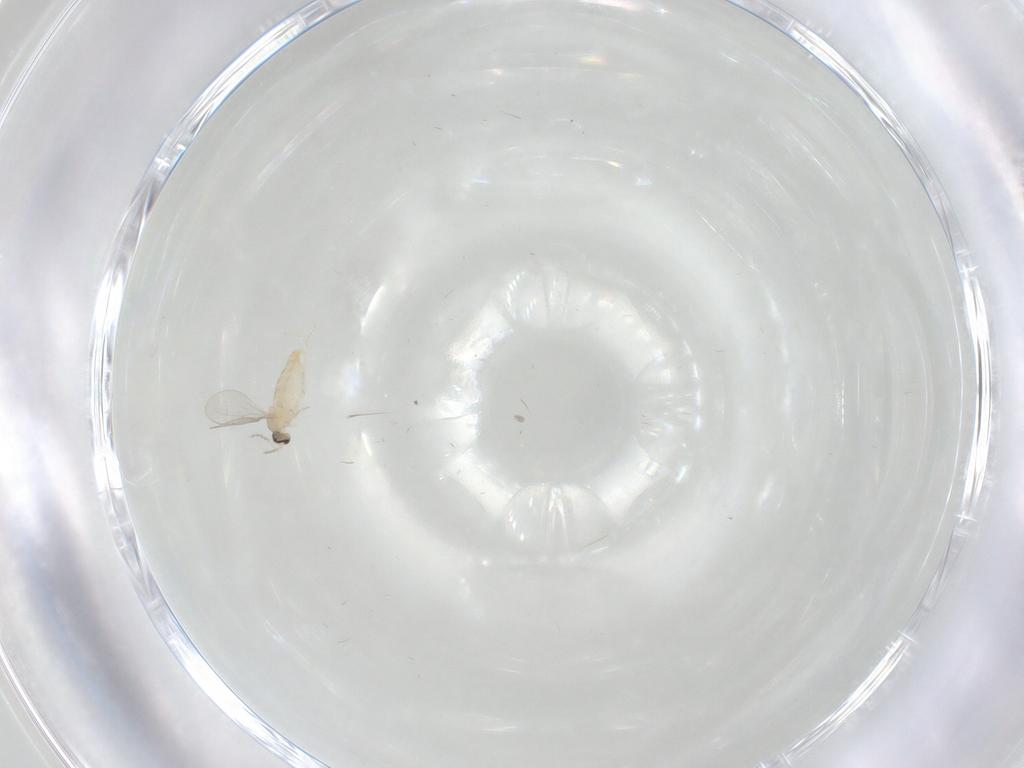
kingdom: Animalia
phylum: Arthropoda
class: Insecta
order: Diptera
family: Cecidomyiidae
